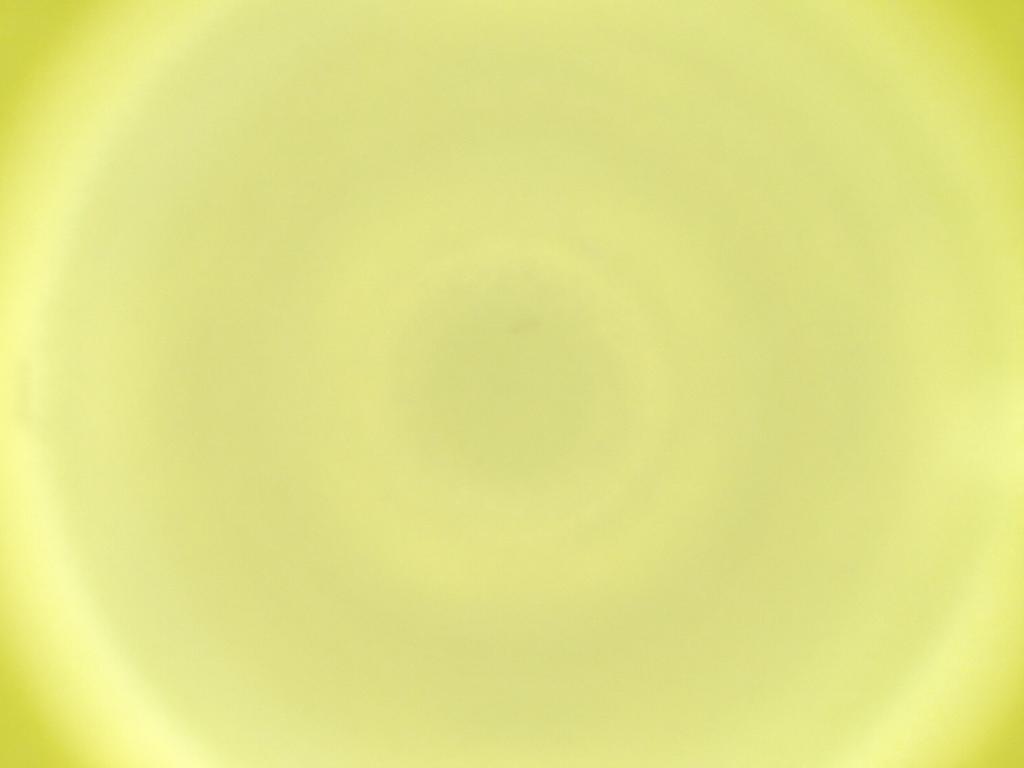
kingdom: Animalia
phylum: Arthropoda
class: Insecta
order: Diptera
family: Cecidomyiidae
